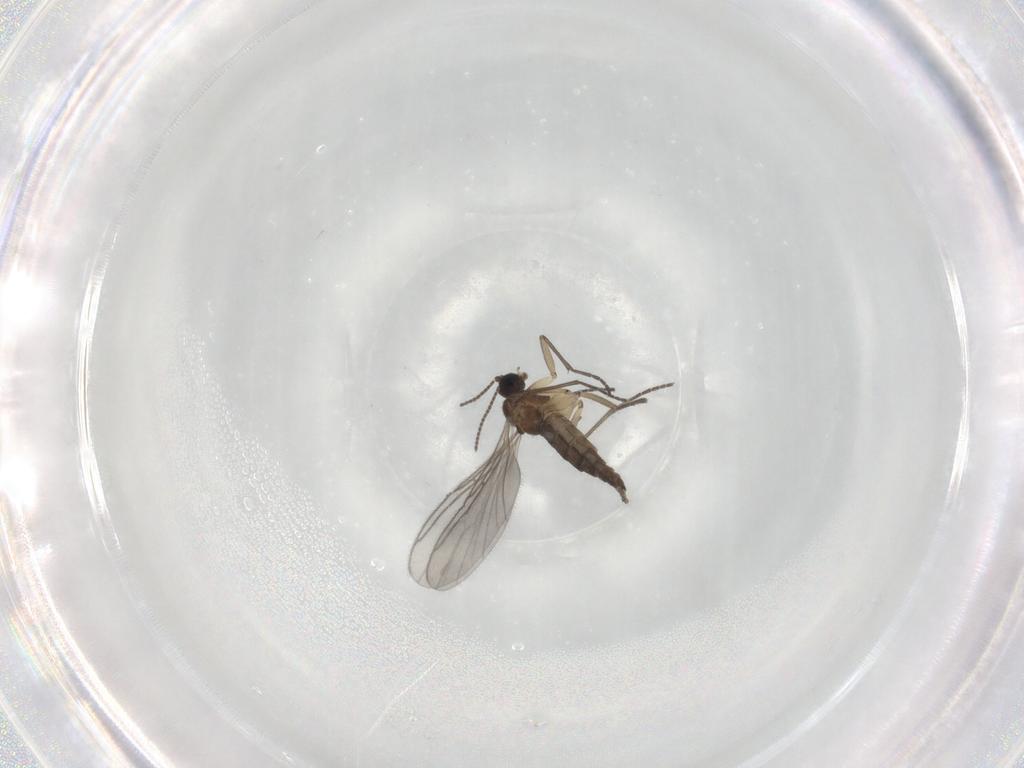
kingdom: Animalia
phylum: Arthropoda
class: Insecta
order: Diptera
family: Sciaridae
